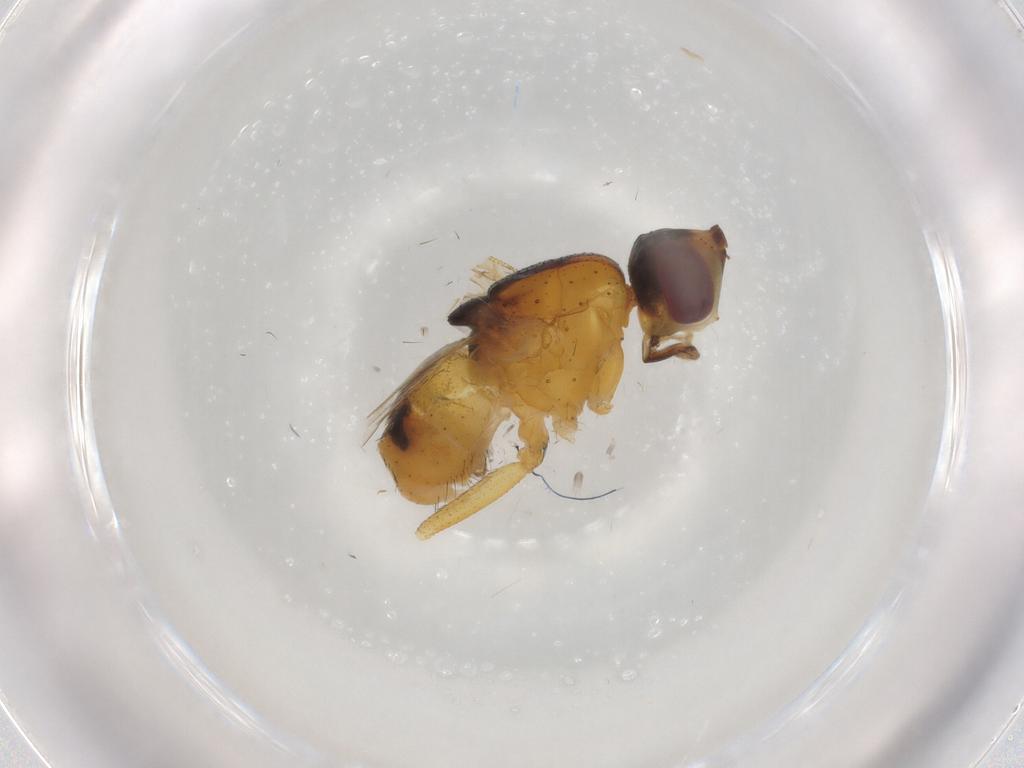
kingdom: Animalia
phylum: Arthropoda
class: Insecta
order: Diptera
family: Muscidae
